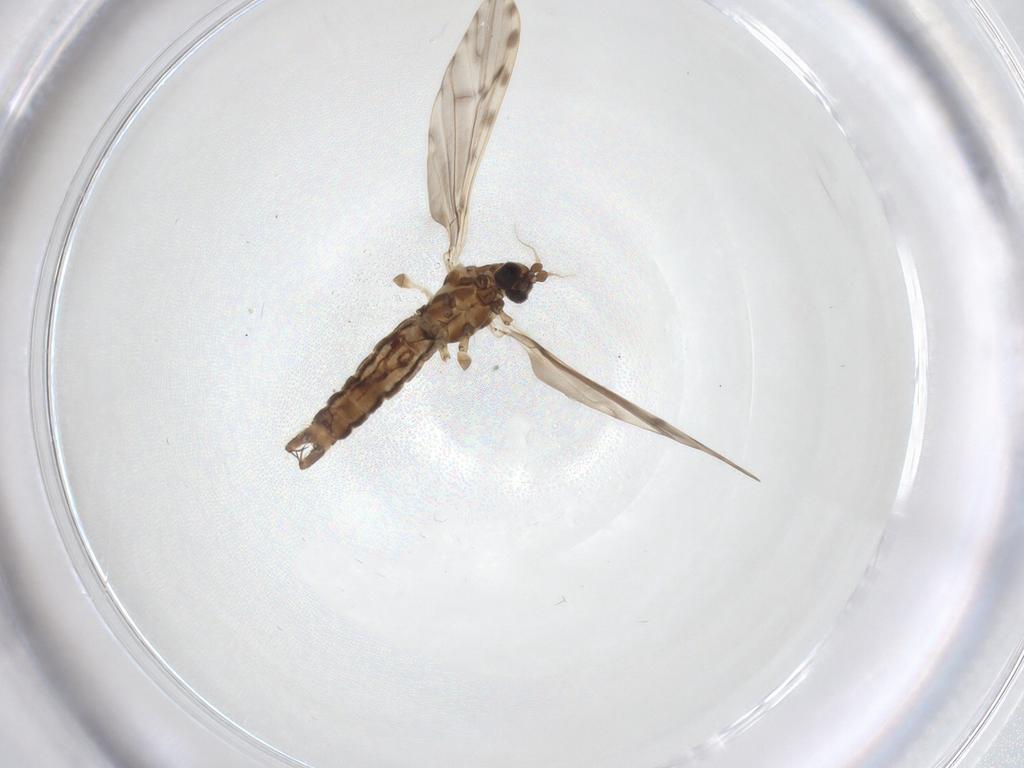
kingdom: Animalia
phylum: Arthropoda
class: Insecta
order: Diptera
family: Limoniidae
